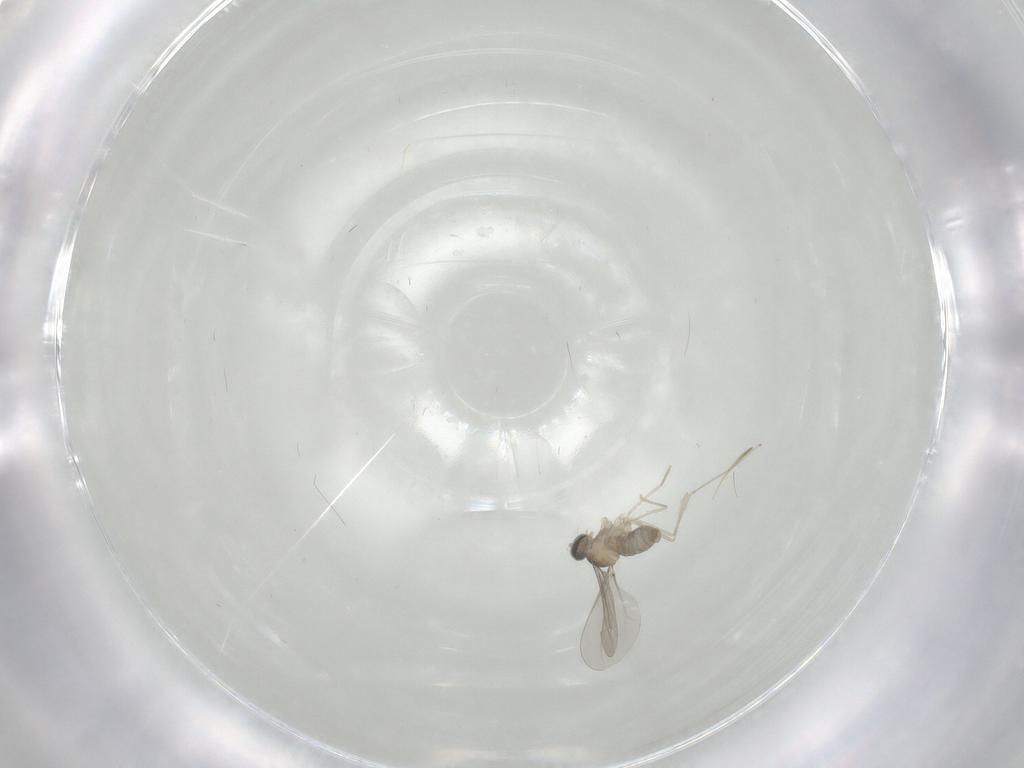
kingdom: Animalia
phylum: Arthropoda
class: Insecta
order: Diptera
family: Cecidomyiidae
